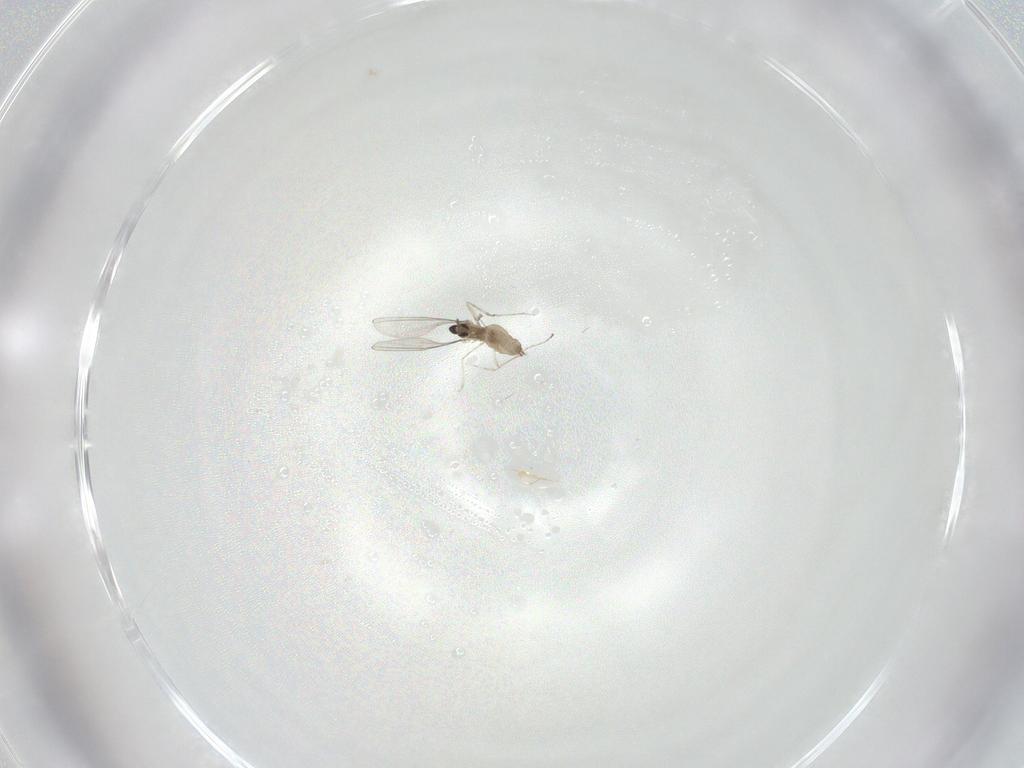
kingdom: Animalia
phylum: Arthropoda
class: Insecta
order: Diptera
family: Cecidomyiidae
